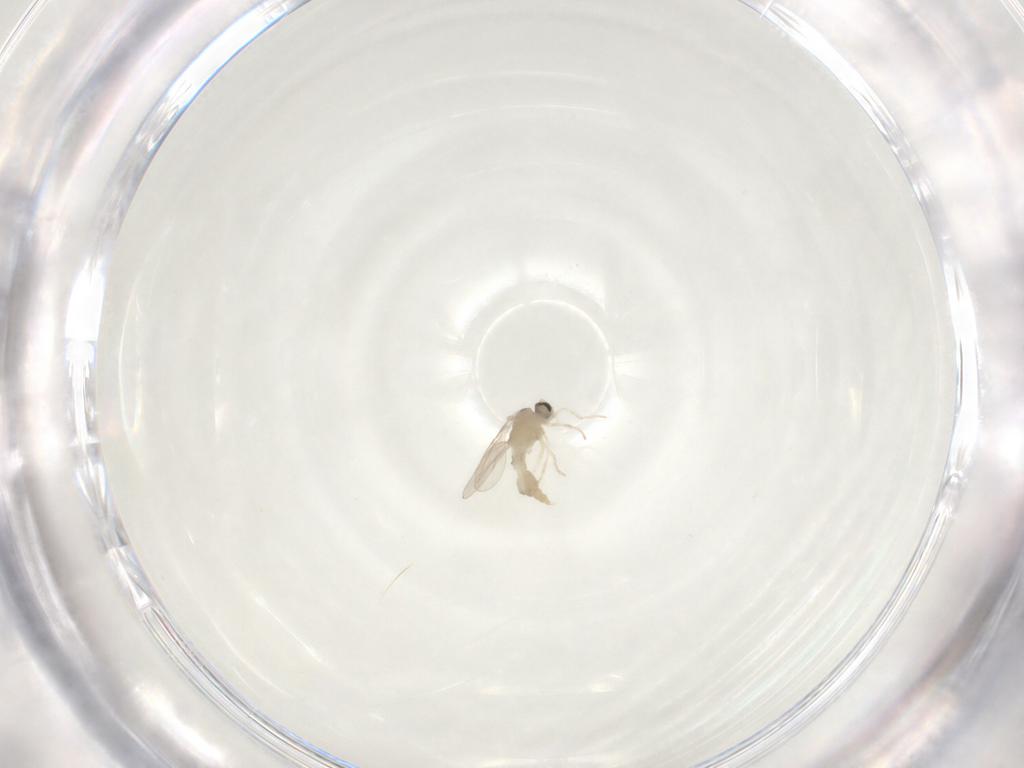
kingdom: Animalia
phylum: Arthropoda
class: Insecta
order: Diptera
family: Cecidomyiidae
